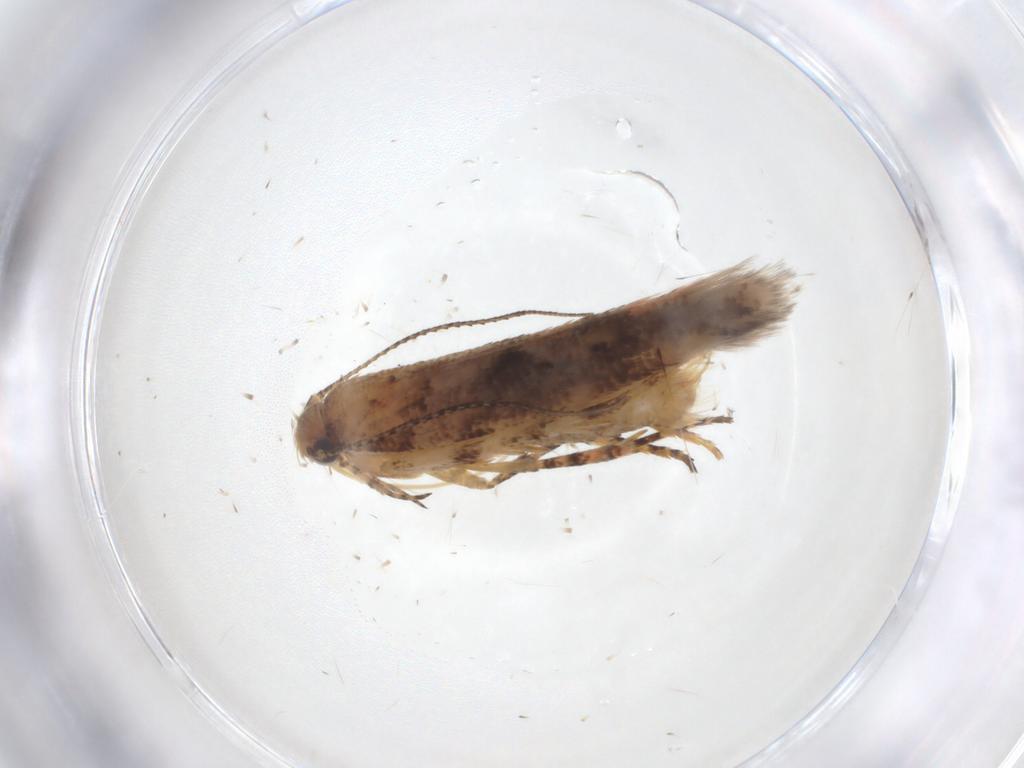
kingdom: Animalia
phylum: Arthropoda
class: Insecta
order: Lepidoptera
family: Gelechiidae
